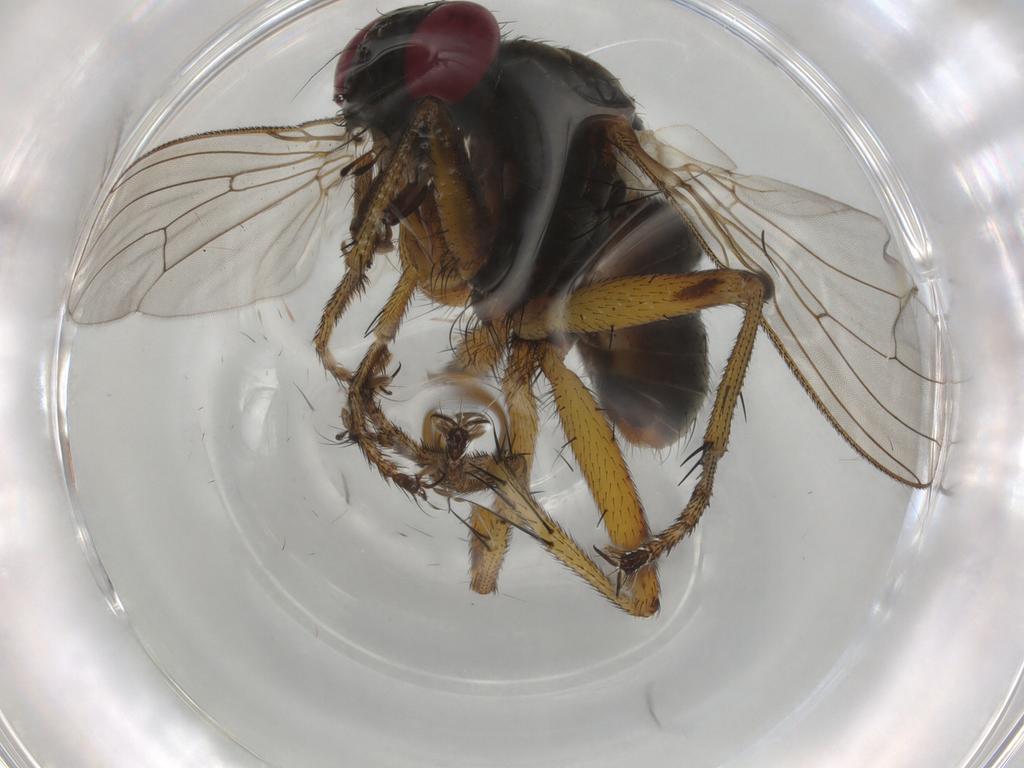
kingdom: Animalia
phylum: Arthropoda
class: Insecta
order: Diptera
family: Muscidae
